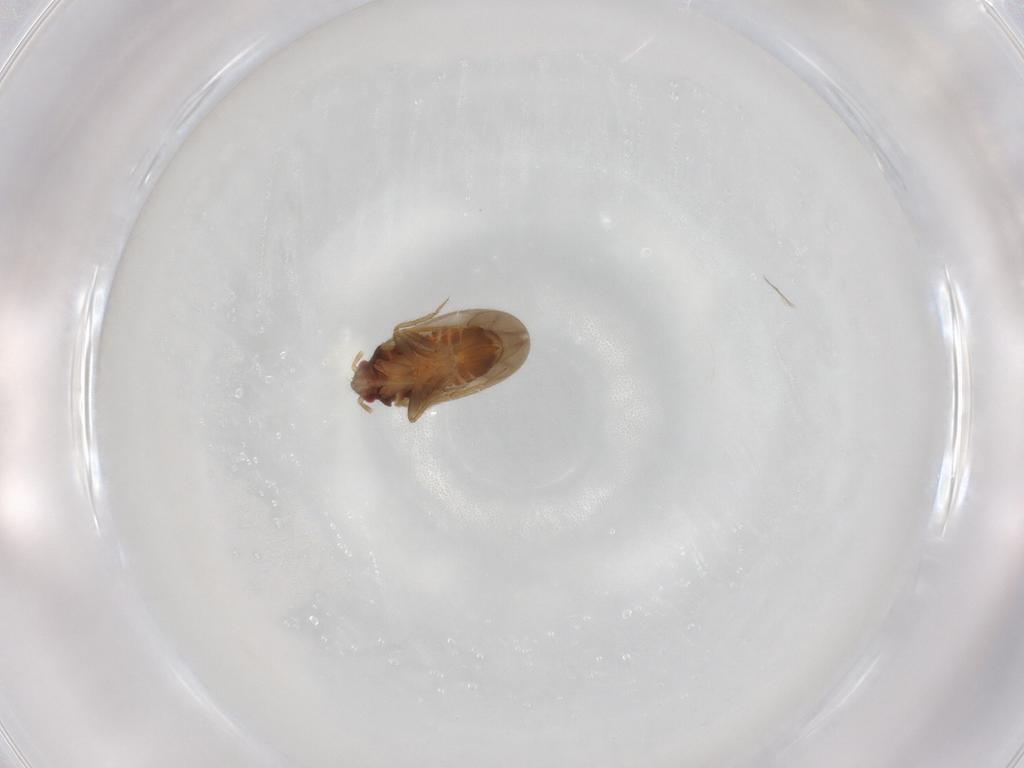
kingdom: Animalia
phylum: Arthropoda
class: Insecta
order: Hemiptera
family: Ceratocombidae
